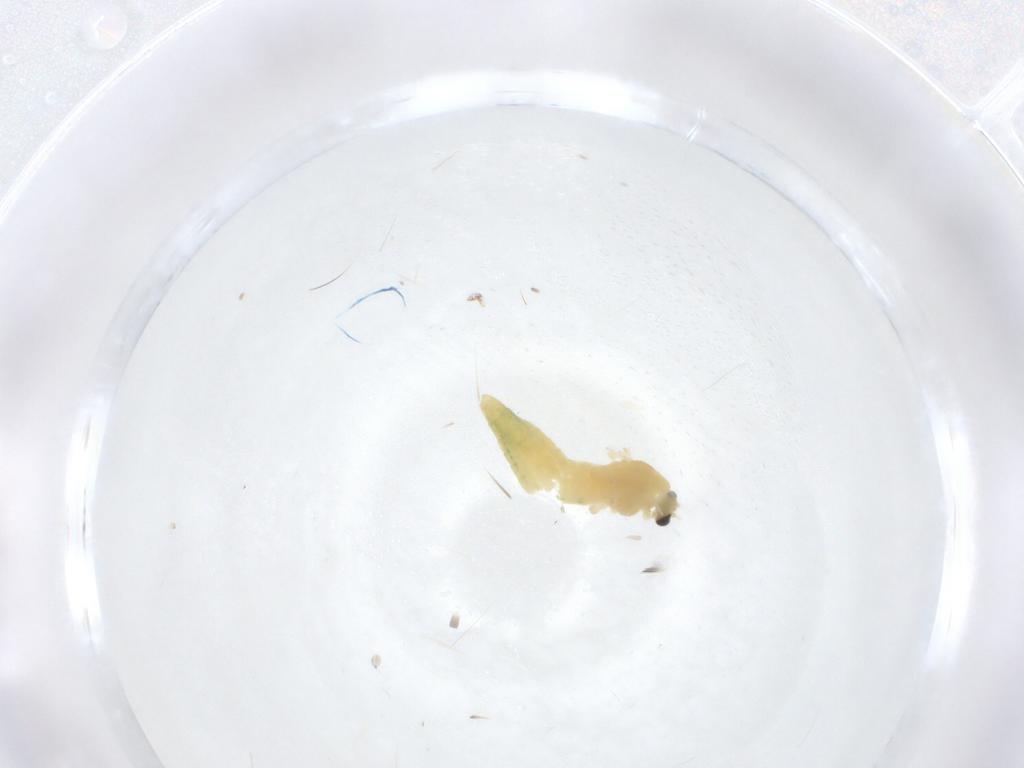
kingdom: Animalia
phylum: Arthropoda
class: Insecta
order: Diptera
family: Chironomidae
